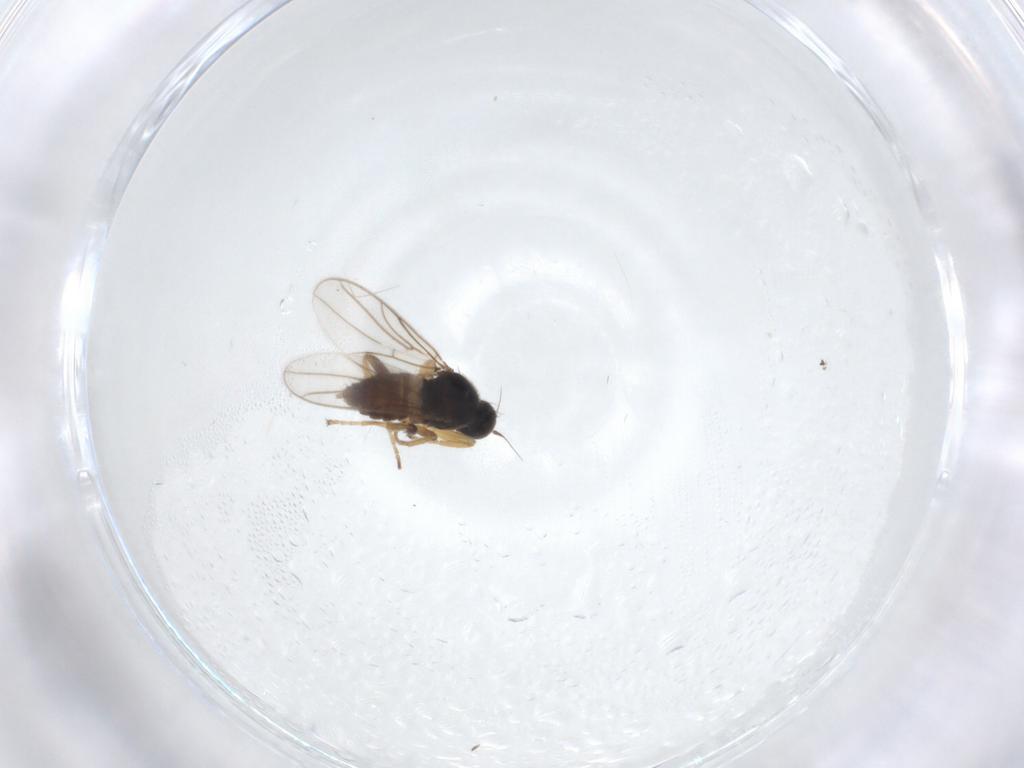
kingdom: Animalia
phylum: Arthropoda
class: Insecta
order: Diptera
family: Hybotidae
